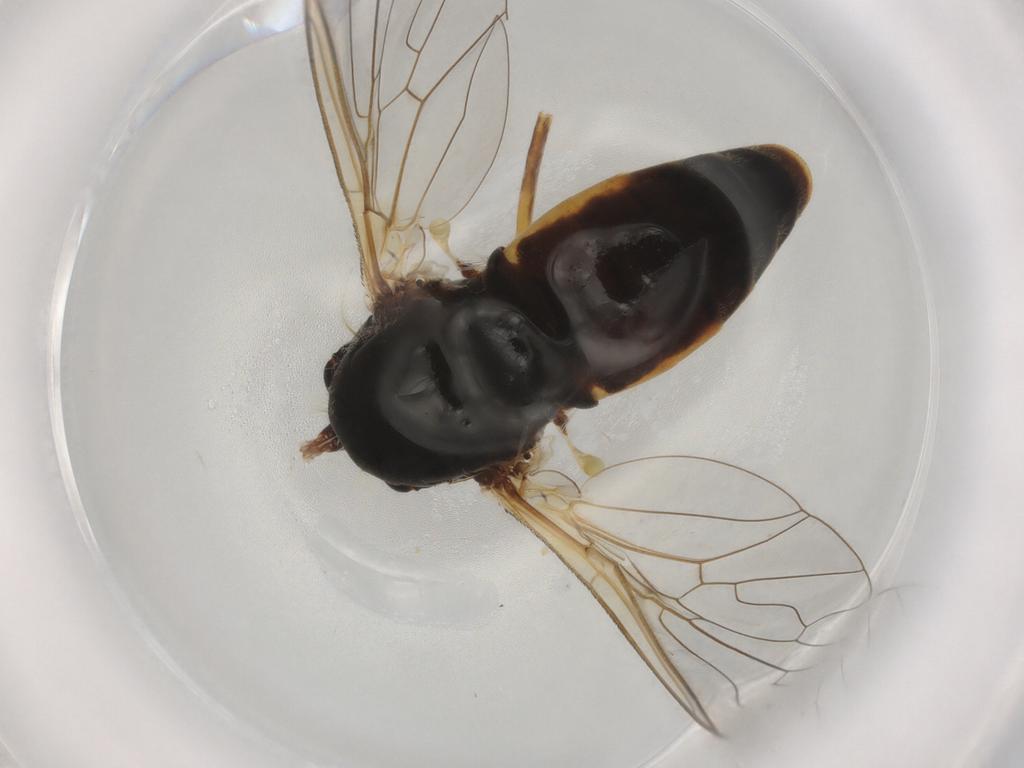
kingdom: Animalia
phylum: Arthropoda
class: Insecta
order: Diptera
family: Bombyliidae
